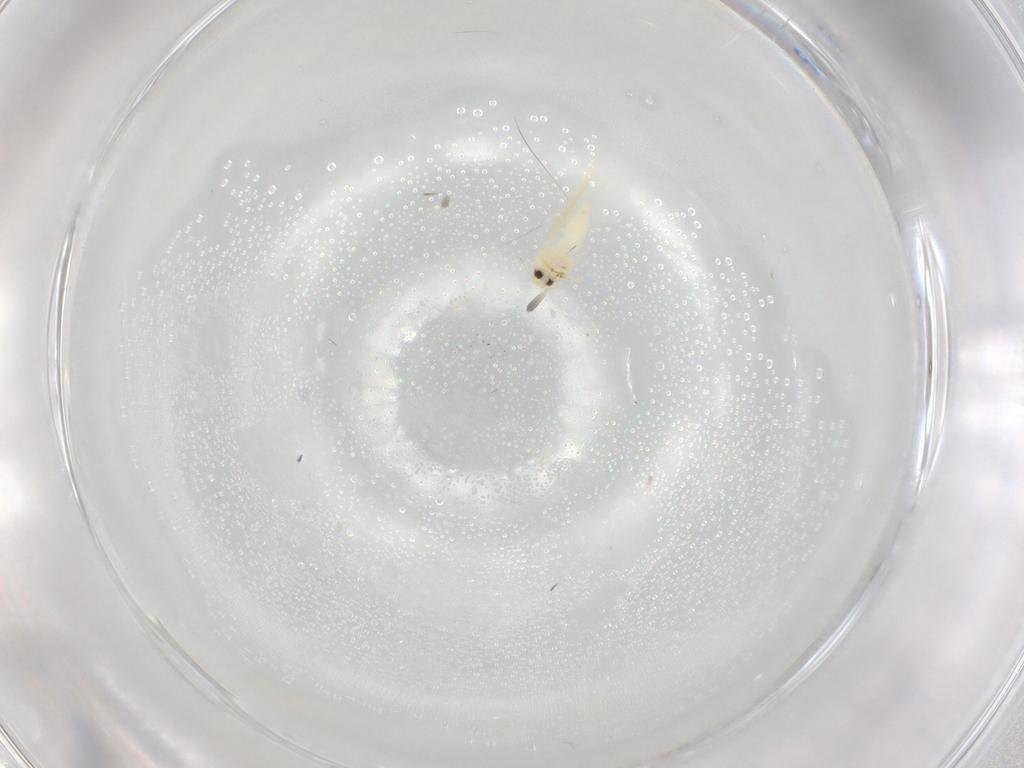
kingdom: Animalia
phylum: Arthropoda
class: Insecta
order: Hemiptera
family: Aleyrodidae
